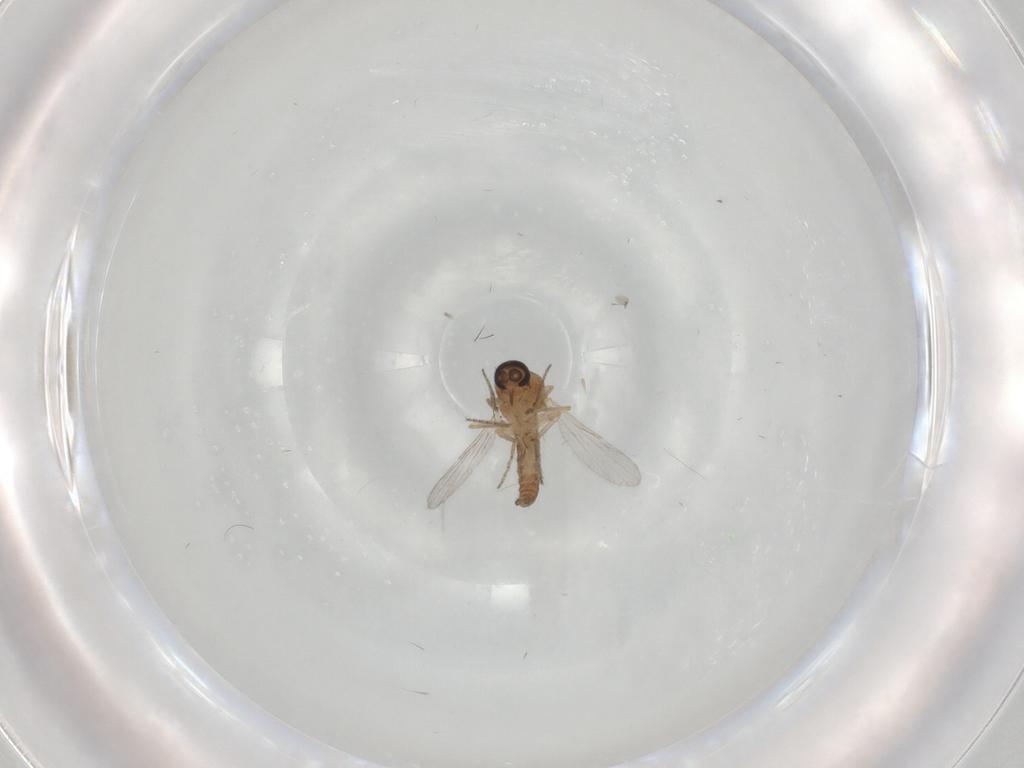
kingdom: Animalia
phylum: Arthropoda
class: Insecta
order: Diptera
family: Ceratopogonidae
